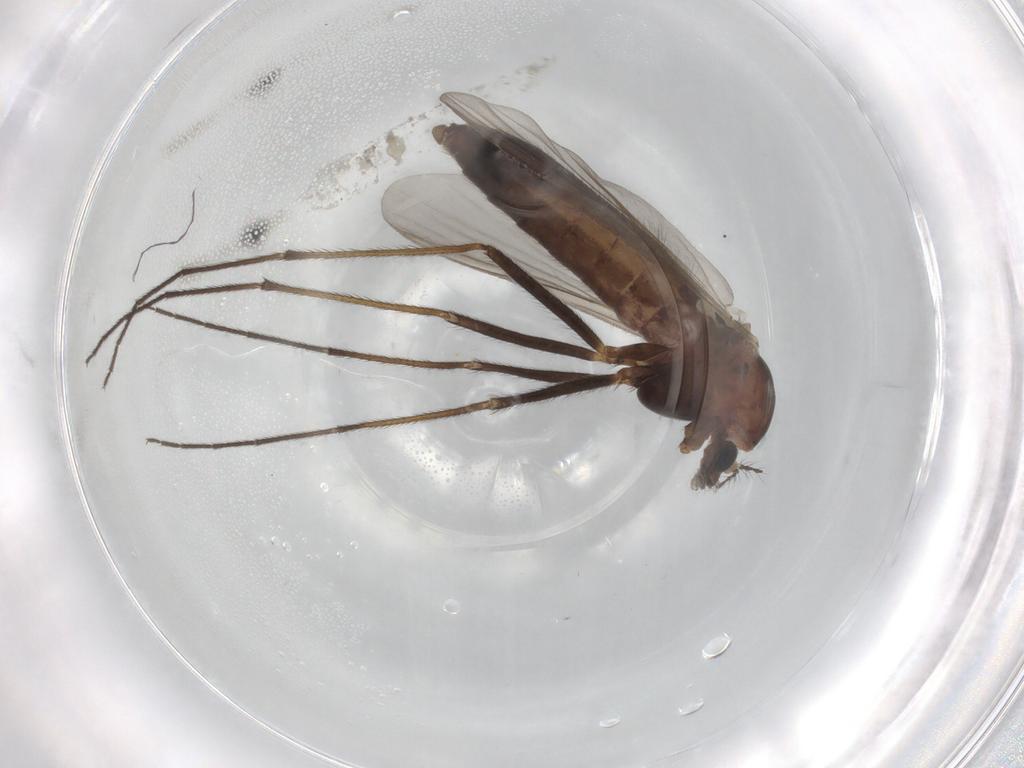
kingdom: Animalia
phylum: Arthropoda
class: Insecta
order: Diptera
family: Chironomidae
